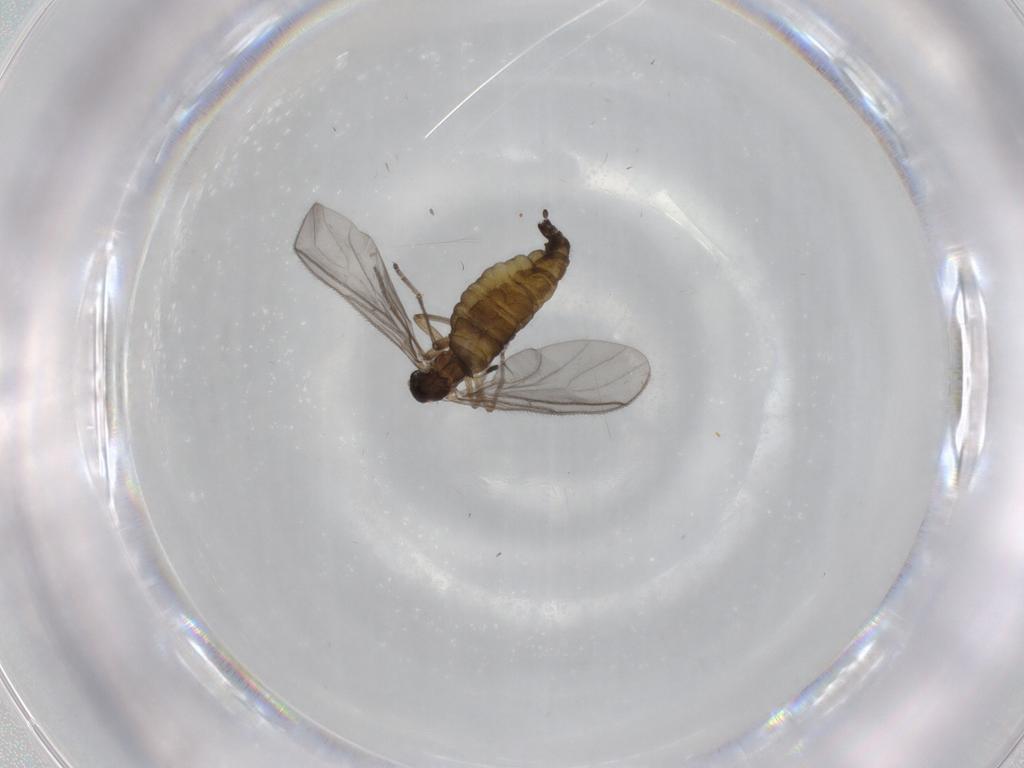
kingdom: Animalia
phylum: Arthropoda
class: Insecta
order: Diptera
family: Sciaridae
